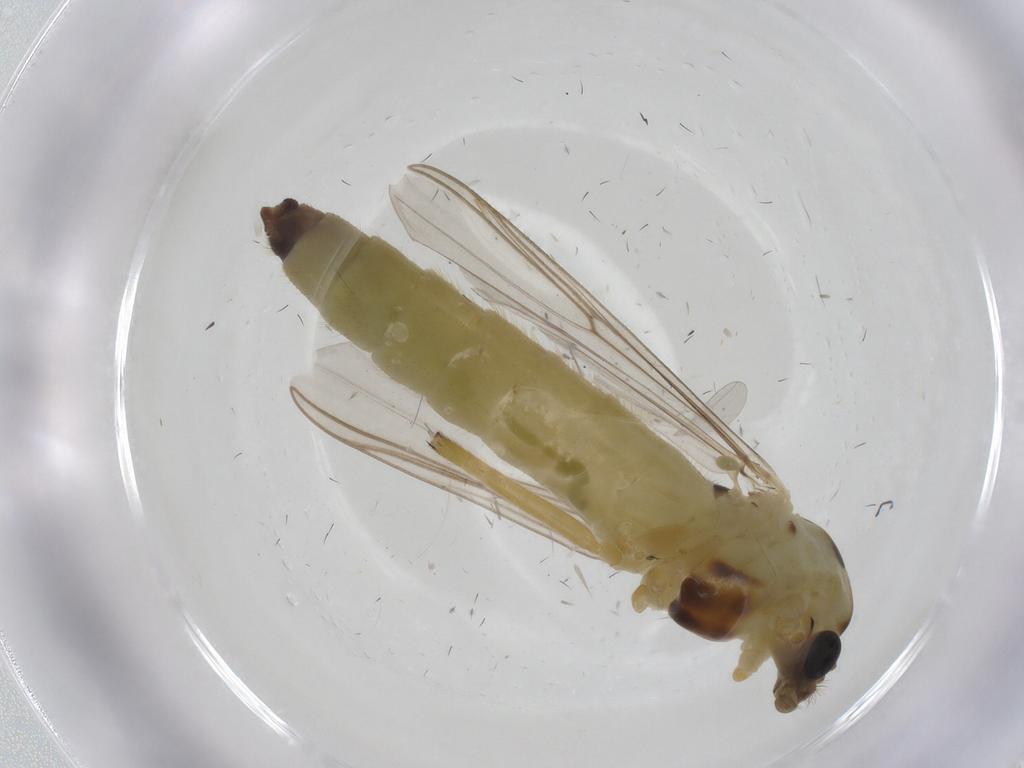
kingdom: Animalia
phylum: Arthropoda
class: Insecta
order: Diptera
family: Chironomidae
